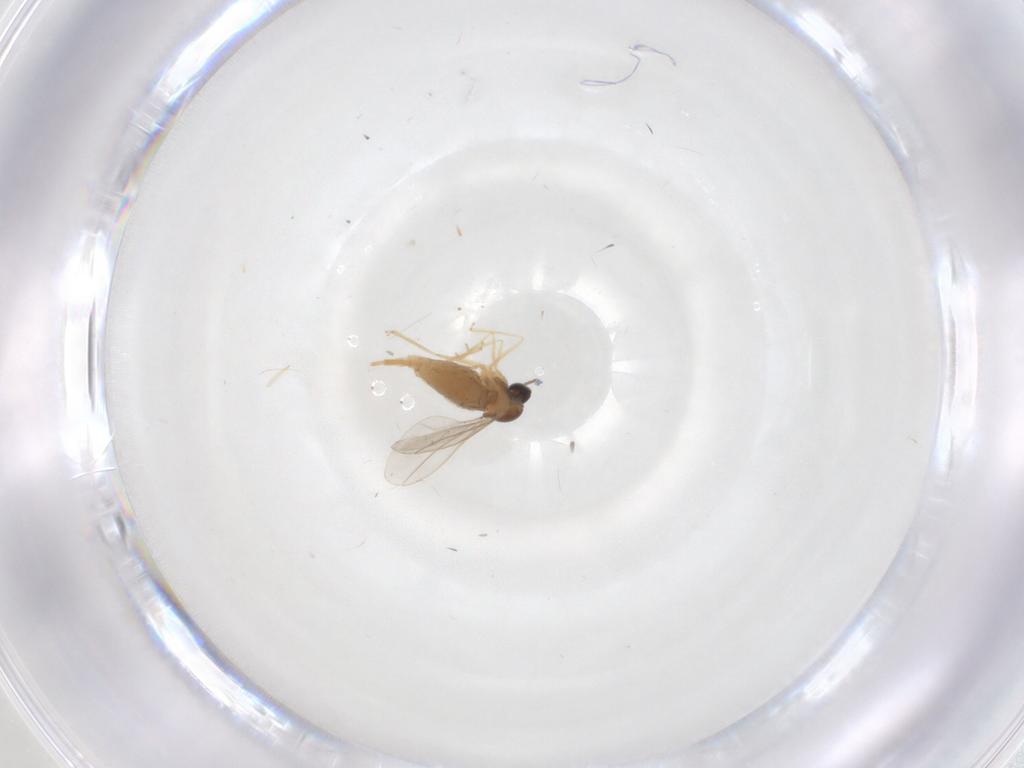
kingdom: Animalia
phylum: Arthropoda
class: Insecta
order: Diptera
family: Cecidomyiidae
